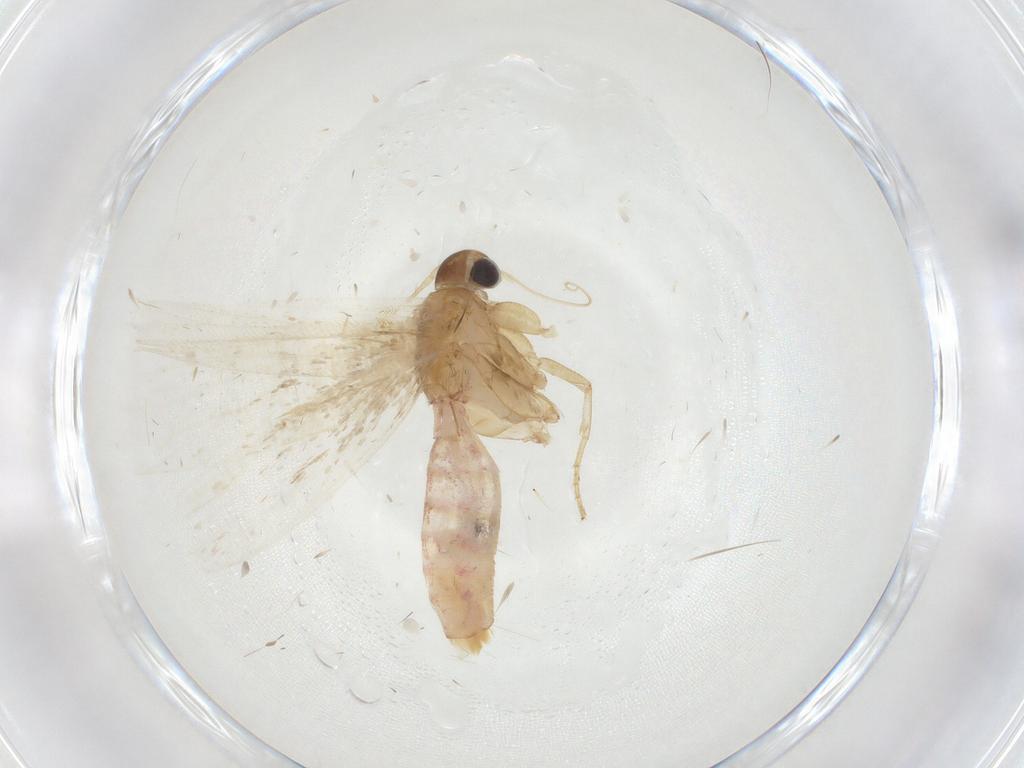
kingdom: Animalia
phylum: Arthropoda
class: Insecta
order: Lepidoptera
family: Gelechiidae
